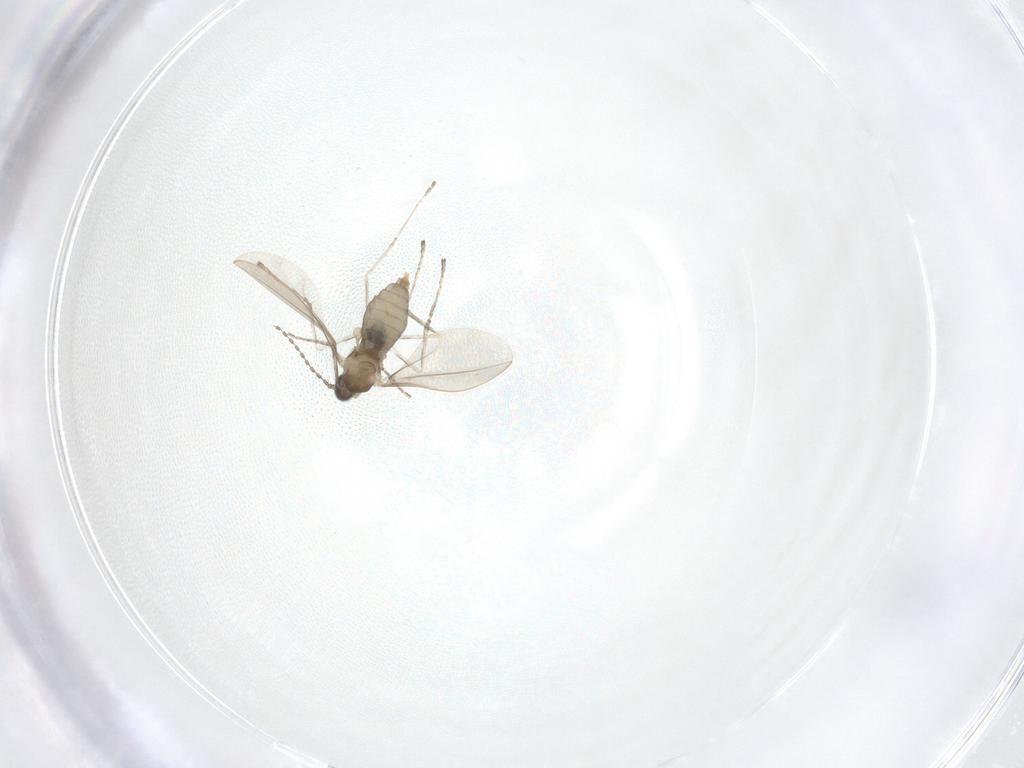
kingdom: Animalia
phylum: Arthropoda
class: Insecta
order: Diptera
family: Cecidomyiidae
